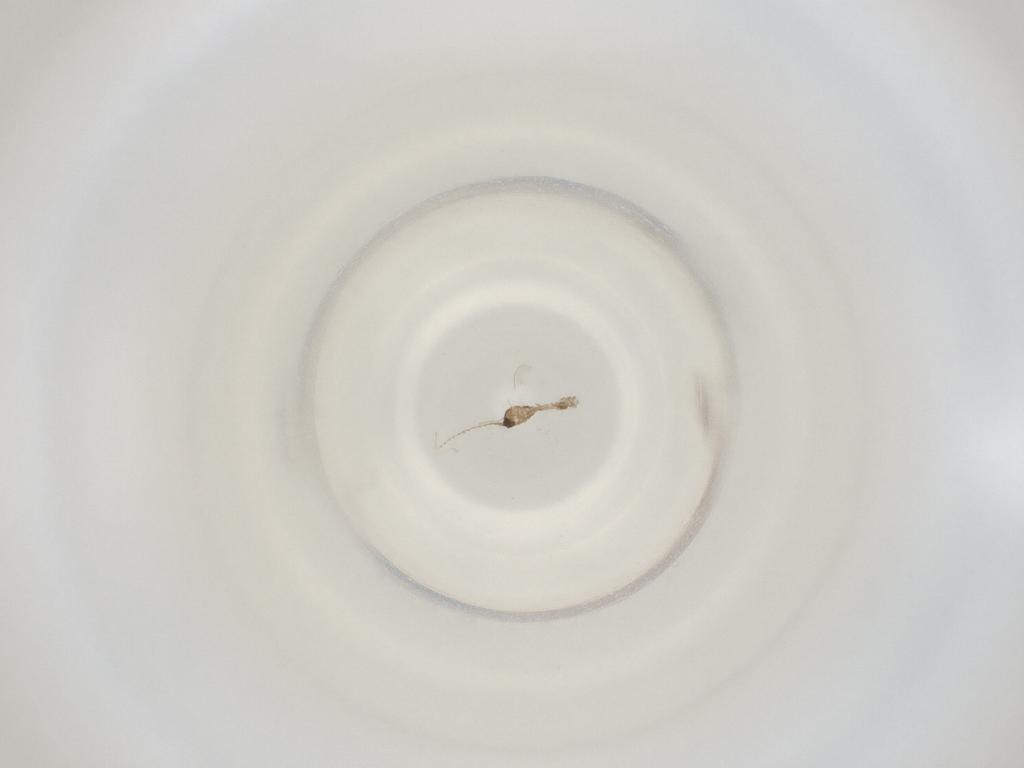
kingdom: Animalia
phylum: Arthropoda
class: Insecta
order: Diptera
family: Cecidomyiidae
